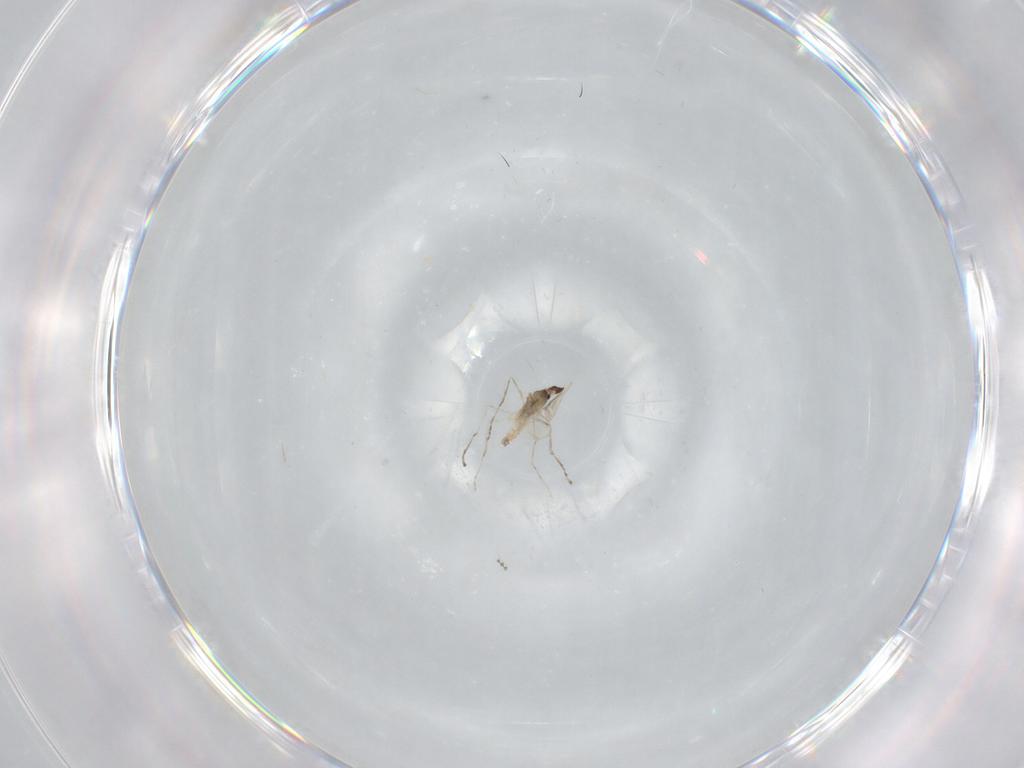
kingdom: Animalia
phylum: Arthropoda
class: Insecta
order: Diptera
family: Cecidomyiidae
